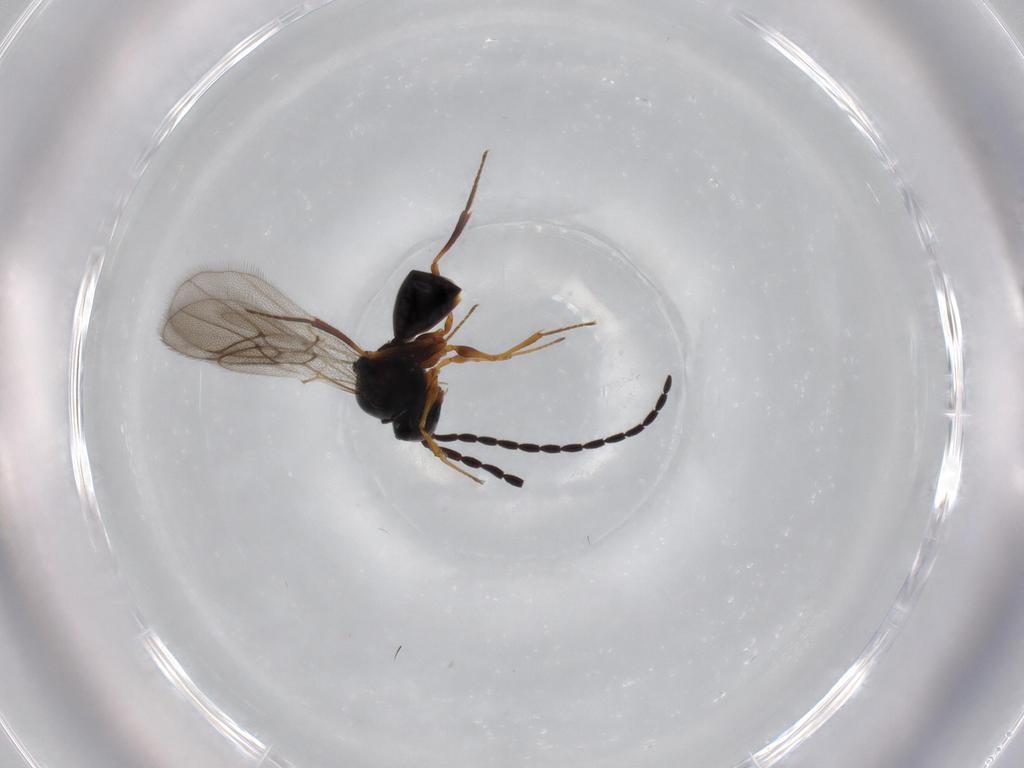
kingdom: Animalia
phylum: Arthropoda
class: Insecta
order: Hymenoptera
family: Figitidae
